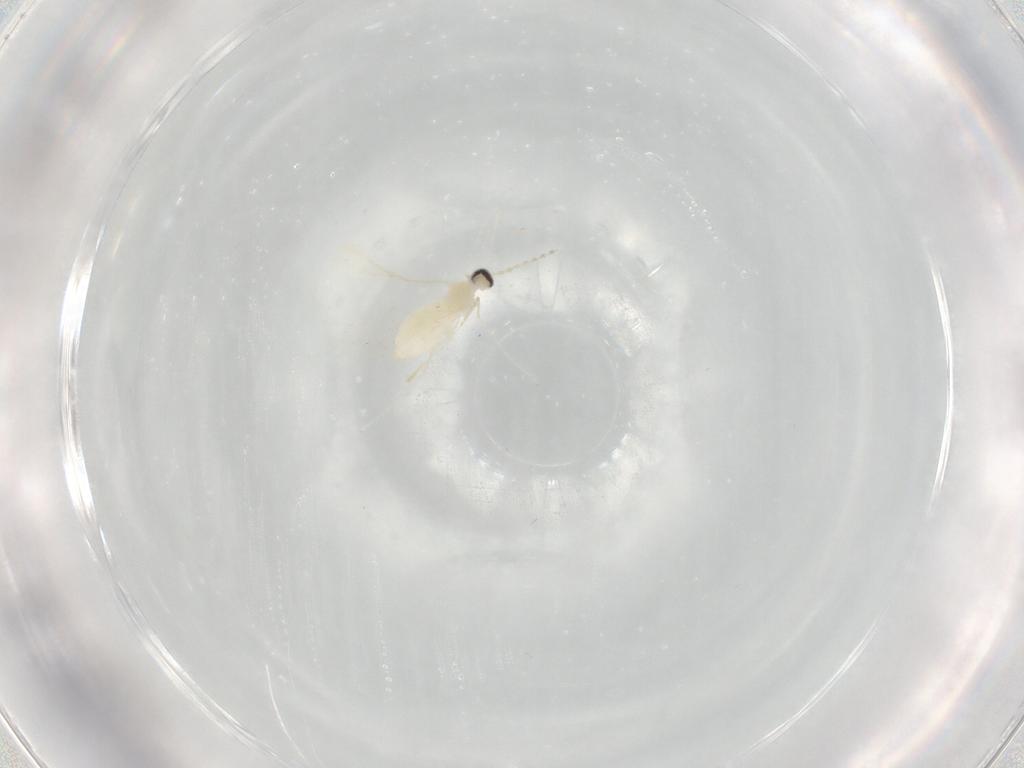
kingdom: Animalia
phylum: Arthropoda
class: Insecta
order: Diptera
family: Cecidomyiidae
